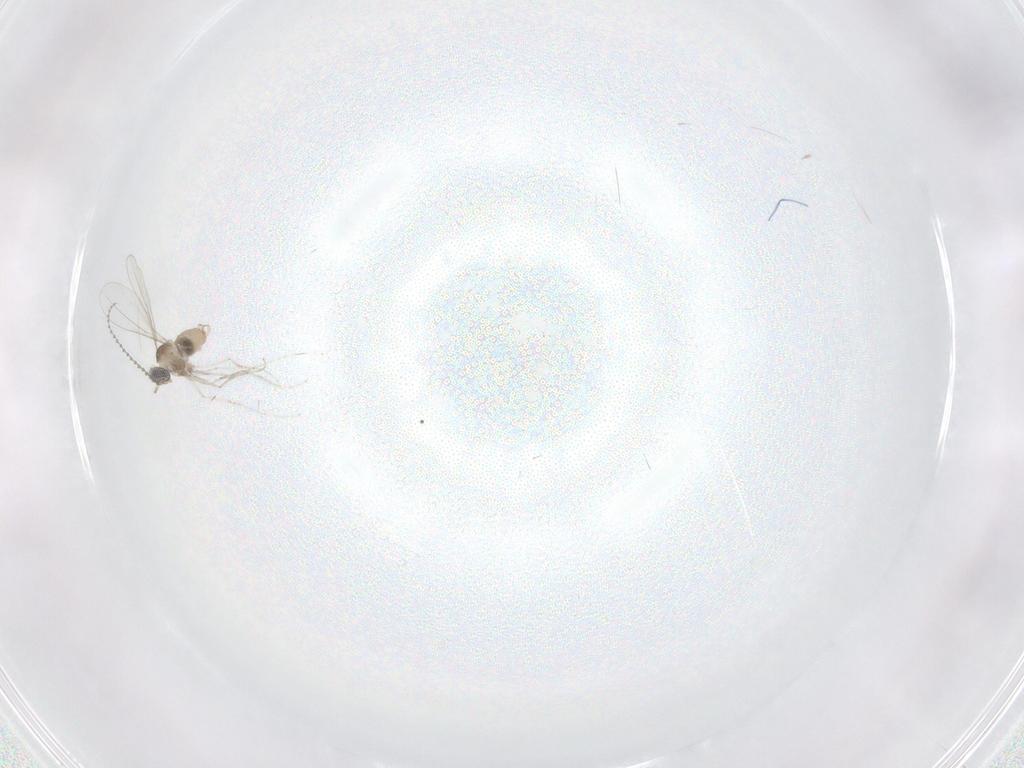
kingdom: Animalia
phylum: Arthropoda
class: Insecta
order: Diptera
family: Cecidomyiidae
